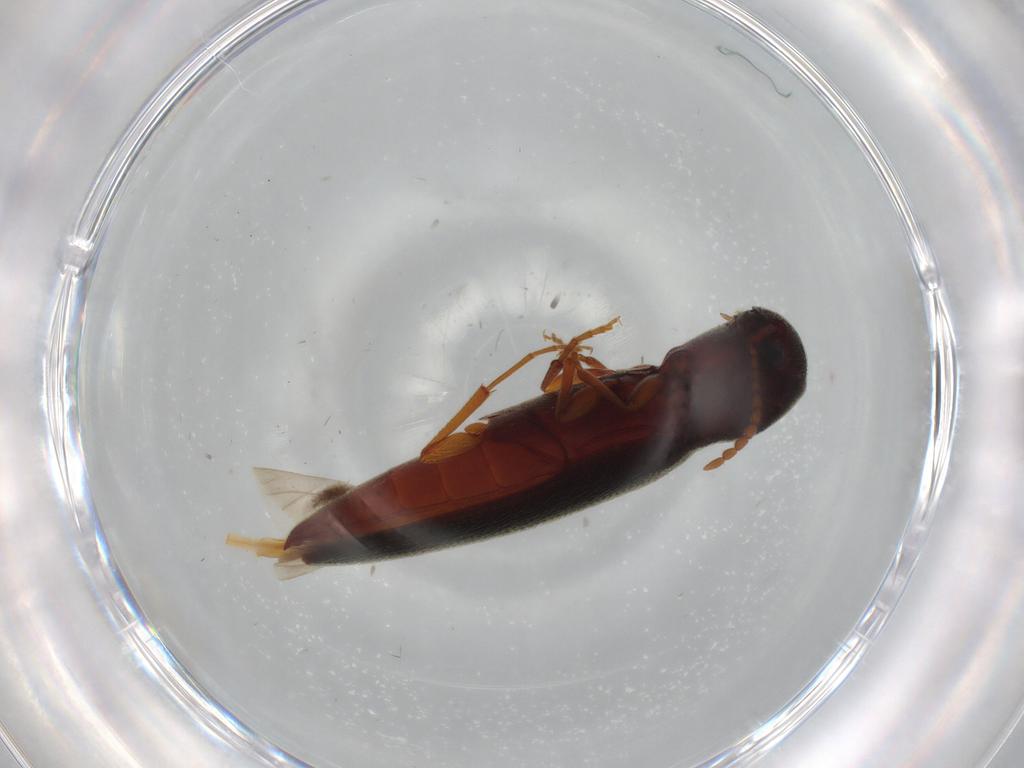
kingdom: Animalia
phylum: Arthropoda
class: Insecta
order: Coleoptera
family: Eucnemidae
